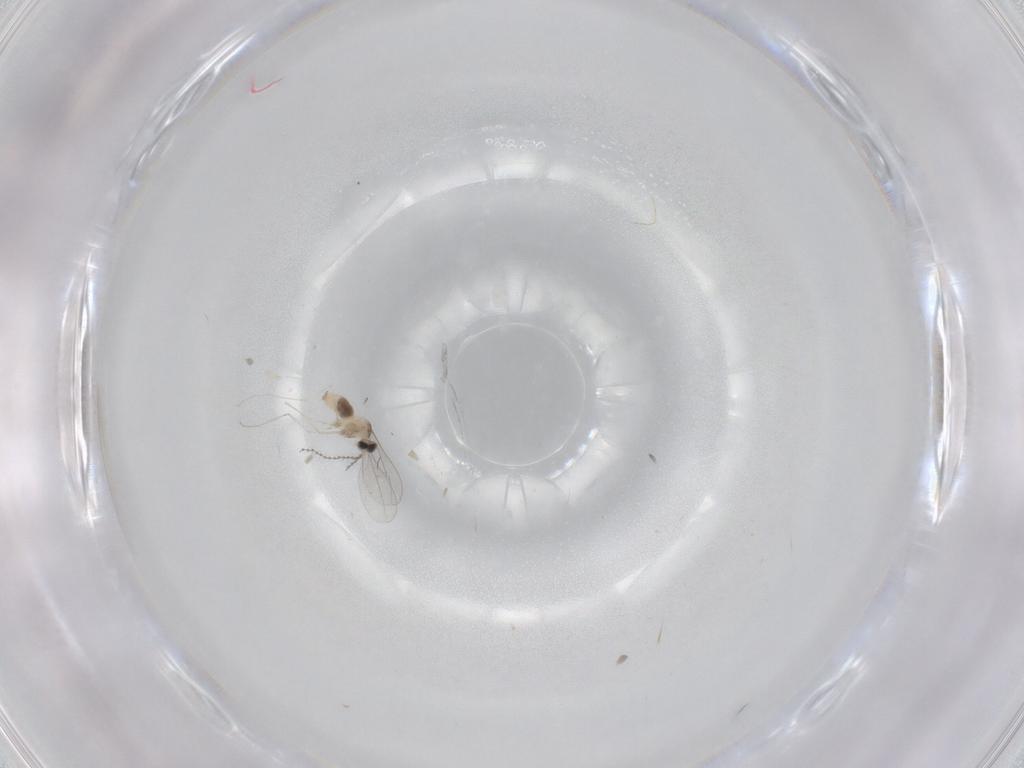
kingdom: Animalia
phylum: Arthropoda
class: Insecta
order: Diptera
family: Cecidomyiidae
